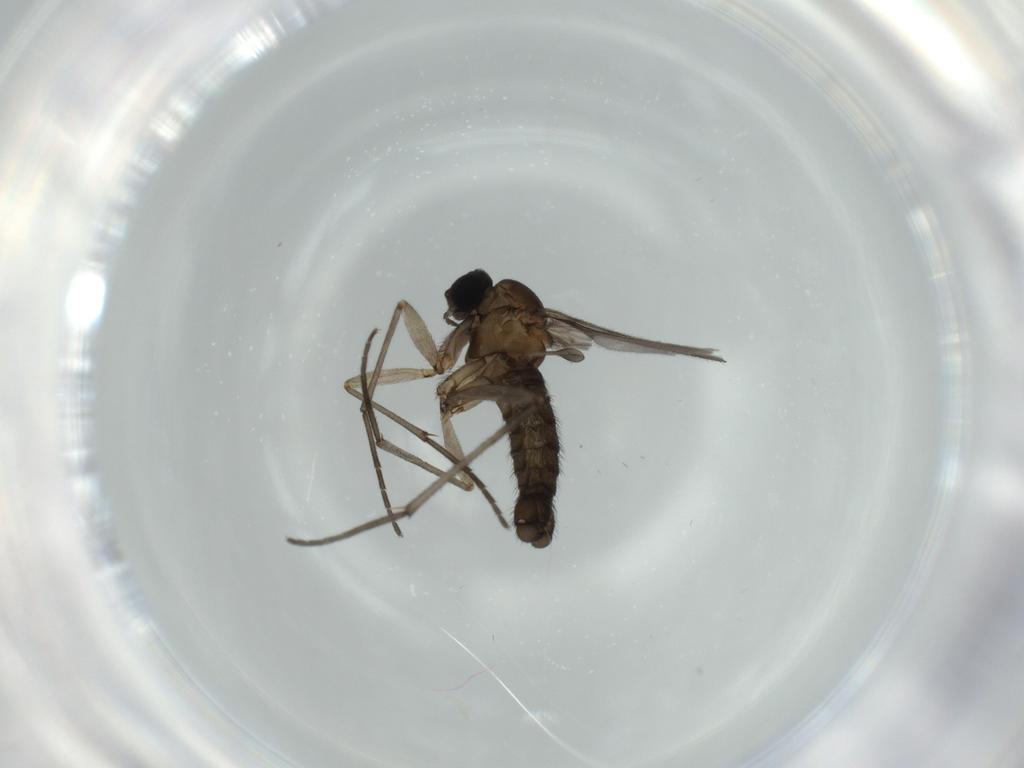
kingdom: Animalia
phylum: Arthropoda
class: Insecta
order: Diptera
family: Sciaridae
